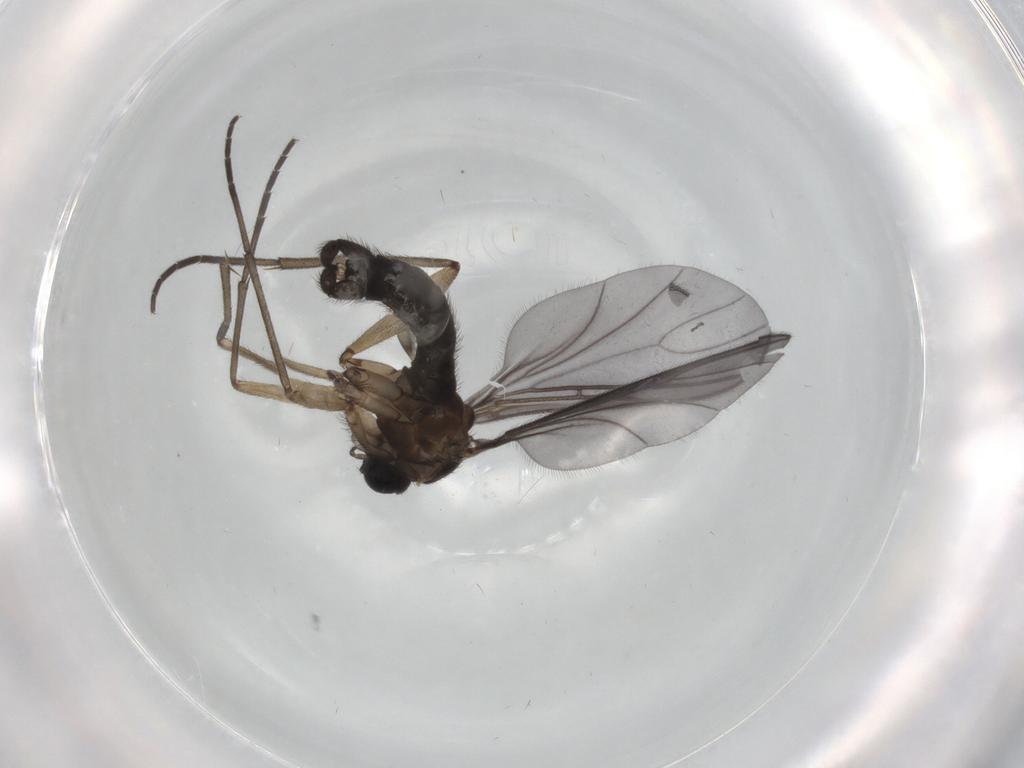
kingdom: Animalia
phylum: Arthropoda
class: Insecta
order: Diptera
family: Sciaridae
